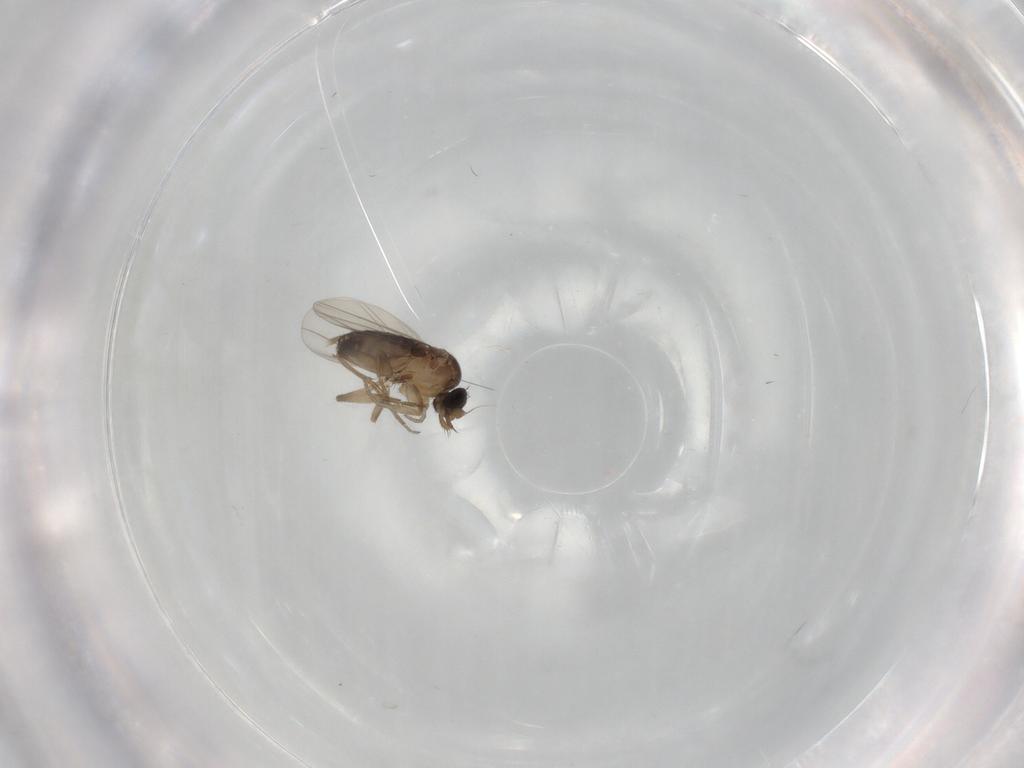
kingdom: Animalia
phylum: Arthropoda
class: Insecta
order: Diptera
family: Phoridae
